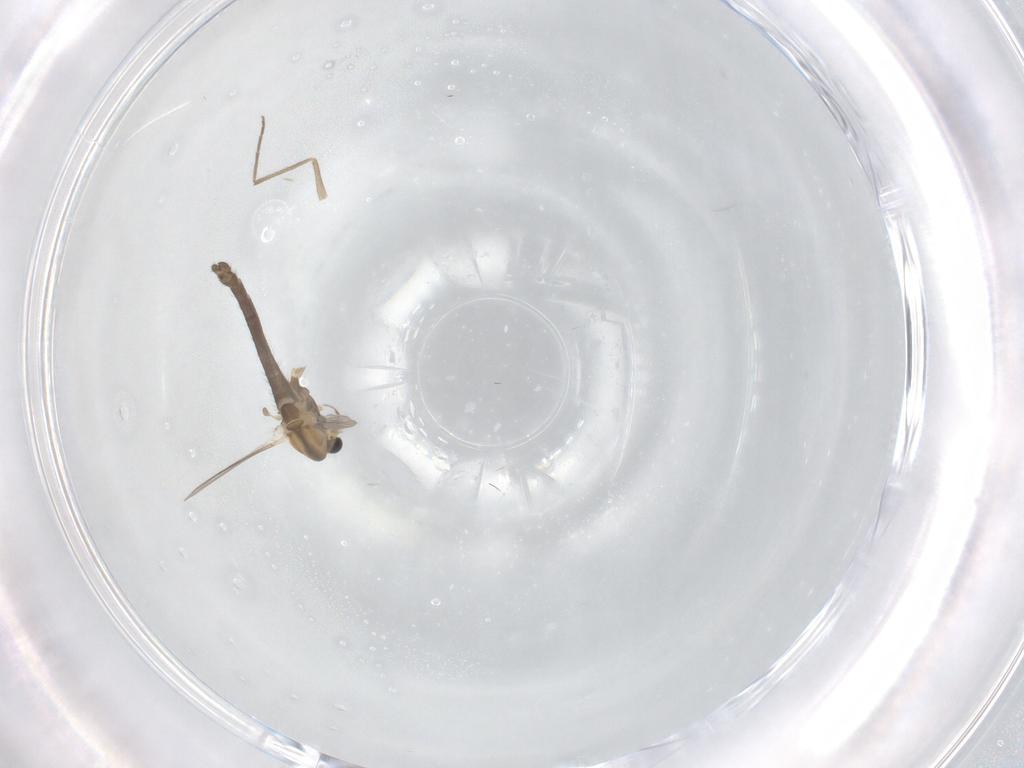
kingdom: Animalia
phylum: Arthropoda
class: Insecta
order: Diptera
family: Chironomidae
